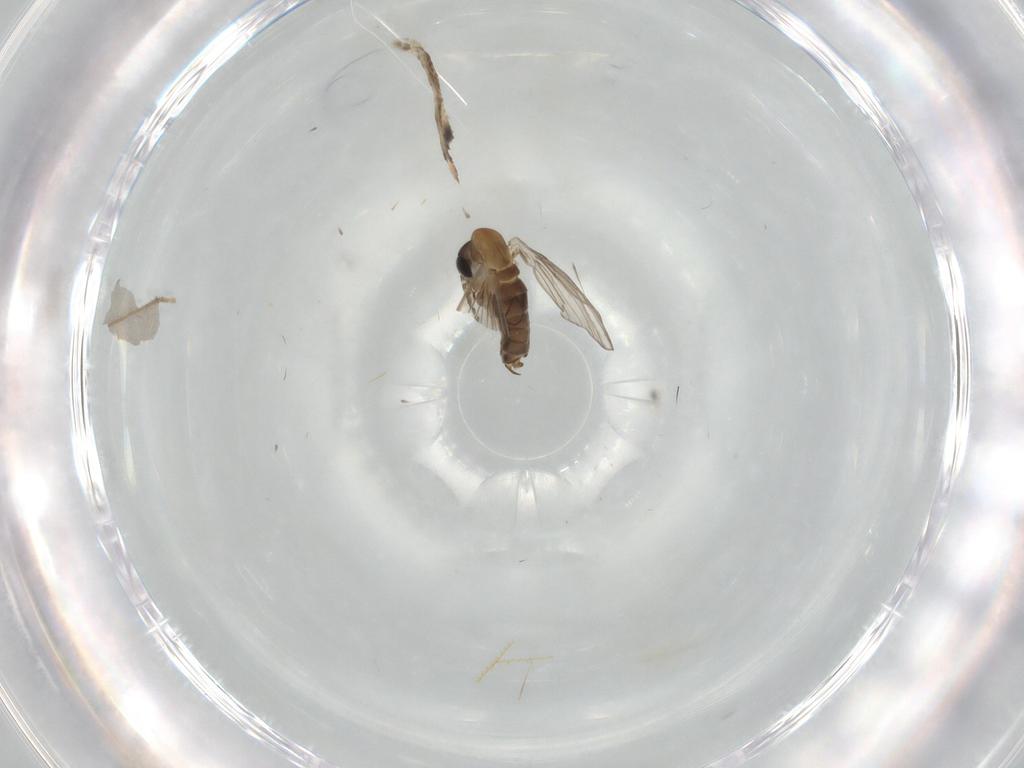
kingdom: Animalia
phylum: Arthropoda
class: Insecta
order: Diptera
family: Psychodidae
